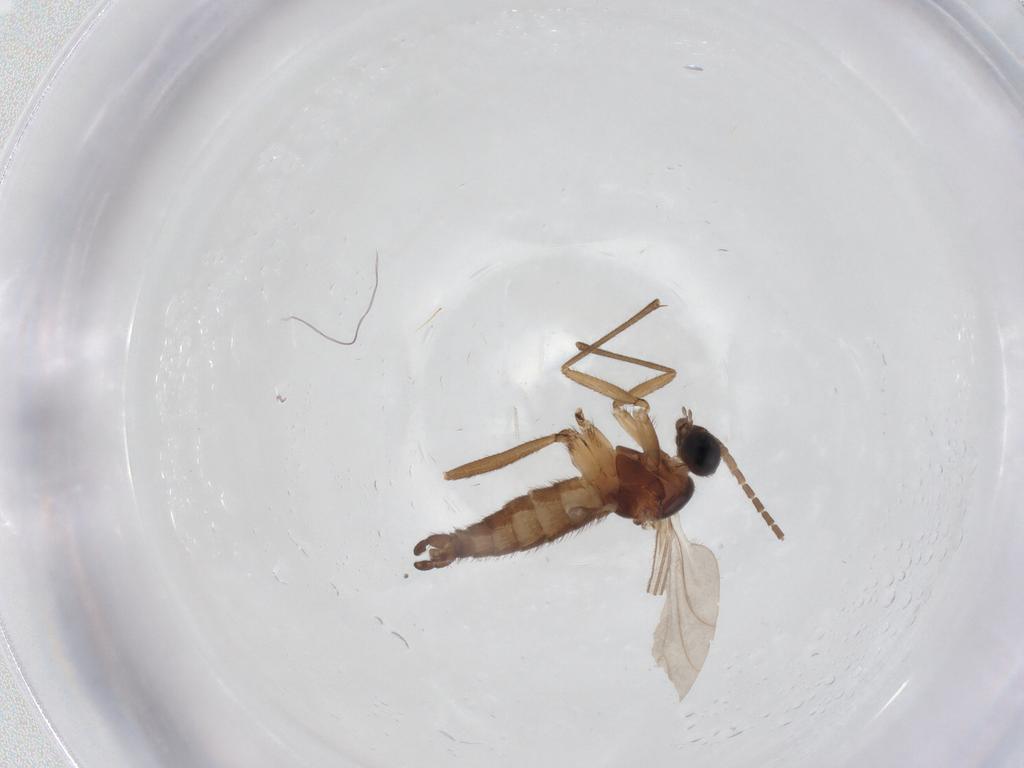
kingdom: Animalia
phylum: Arthropoda
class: Insecta
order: Diptera
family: Sciaridae
